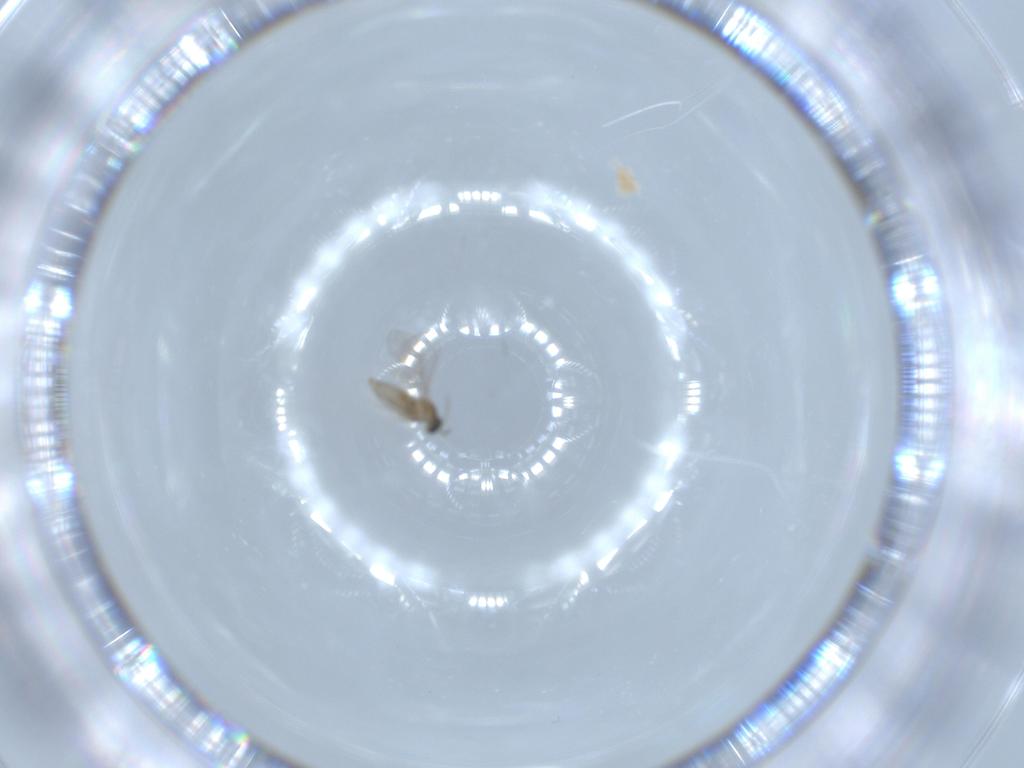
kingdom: Animalia
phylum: Arthropoda
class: Insecta
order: Diptera
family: Cecidomyiidae
